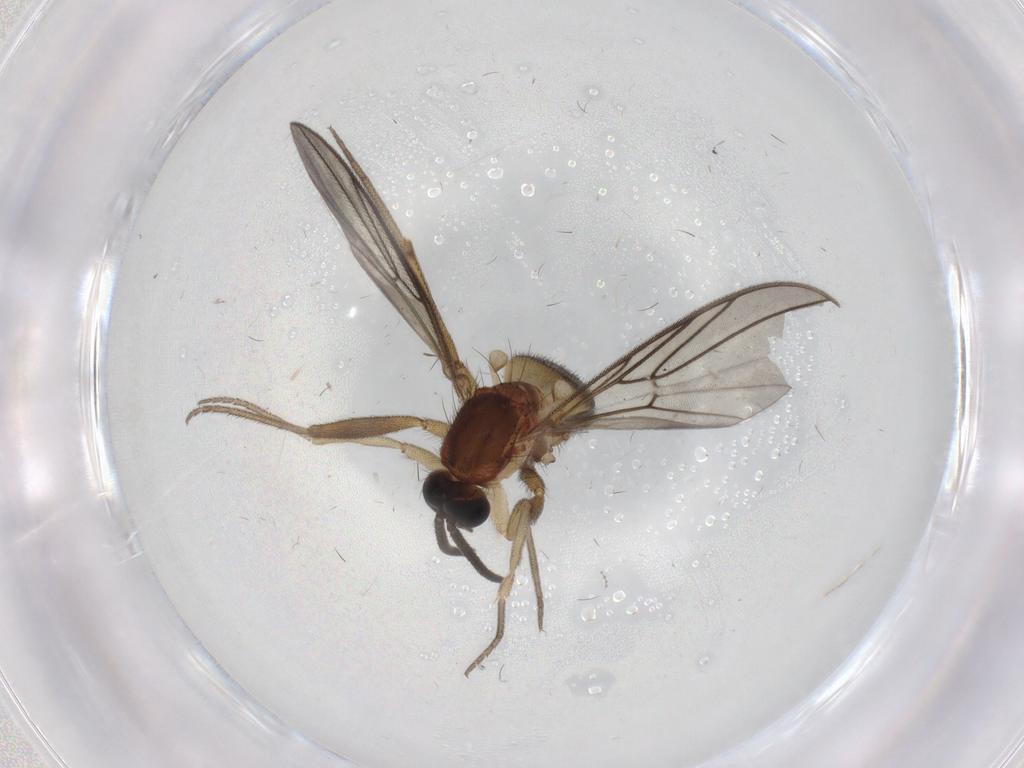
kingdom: Animalia
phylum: Arthropoda
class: Insecta
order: Diptera
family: Phoridae
